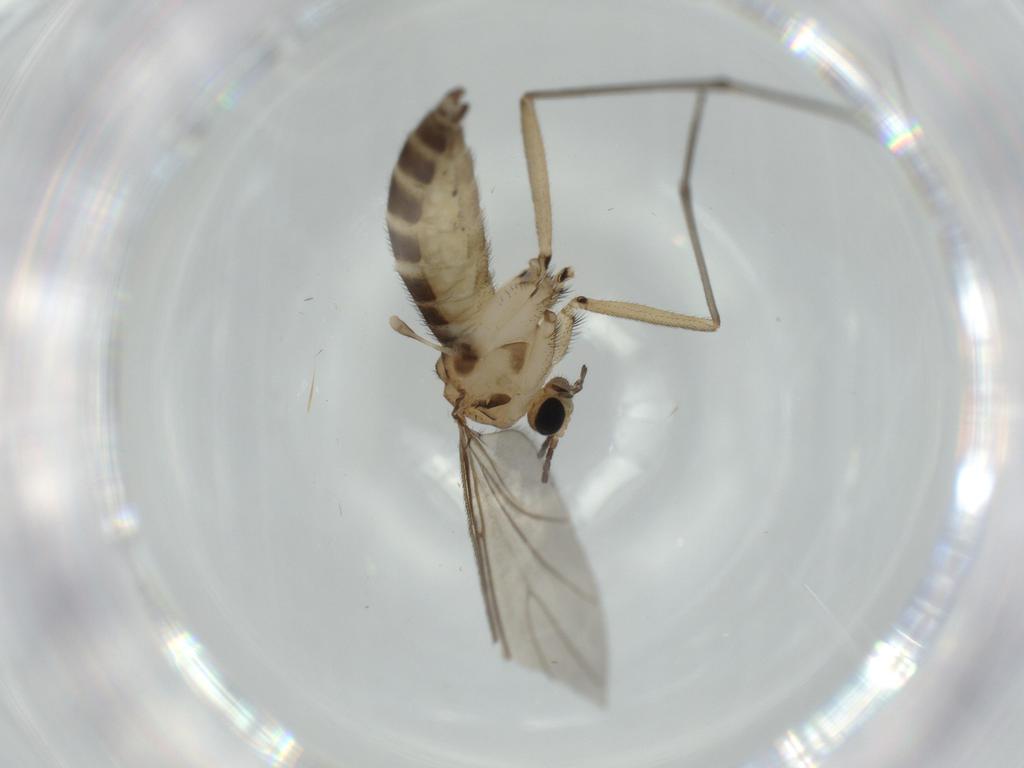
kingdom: Animalia
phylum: Arthropoda
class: Insecta
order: Diptera
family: Sciaridae
